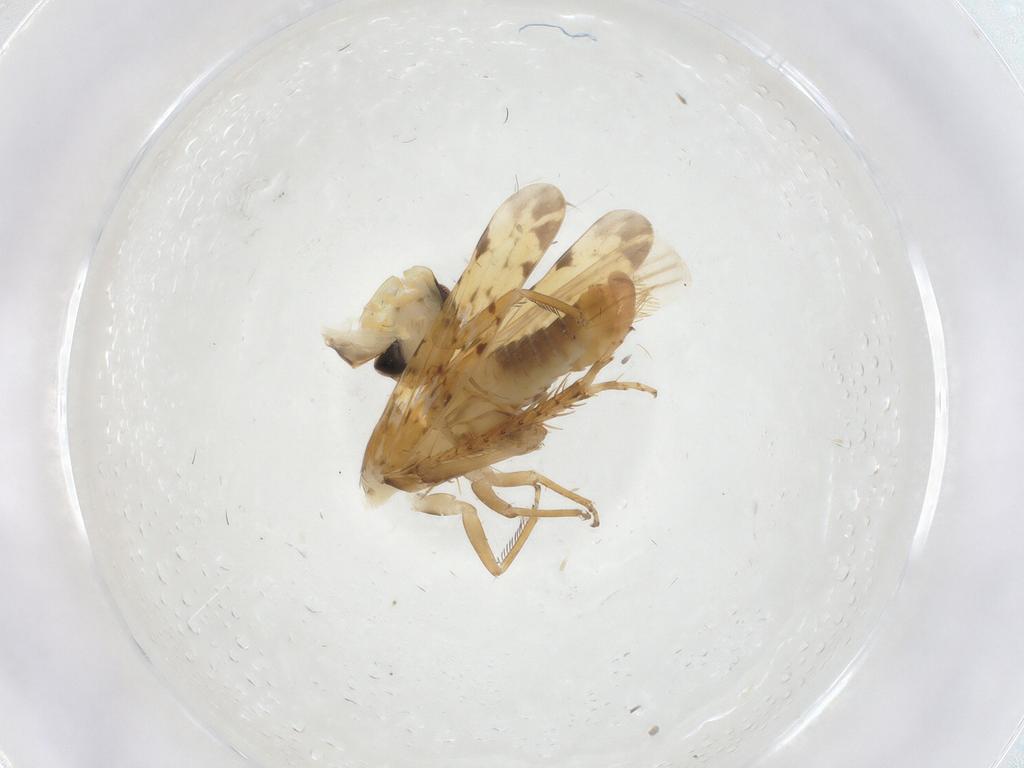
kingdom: Animalia
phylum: Arthropoda
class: Insecta
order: Hemiptera
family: Cicadellidae
